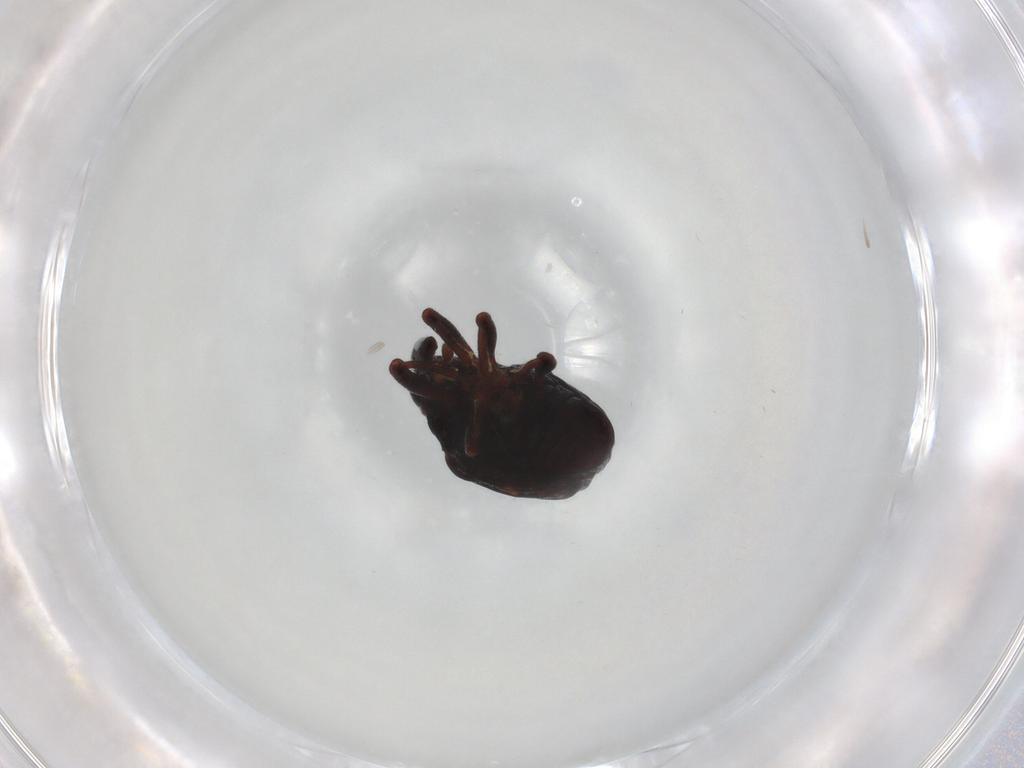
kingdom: Animalia
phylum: Arthropoda
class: Insecta
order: Coleoptera
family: Curculionidae
